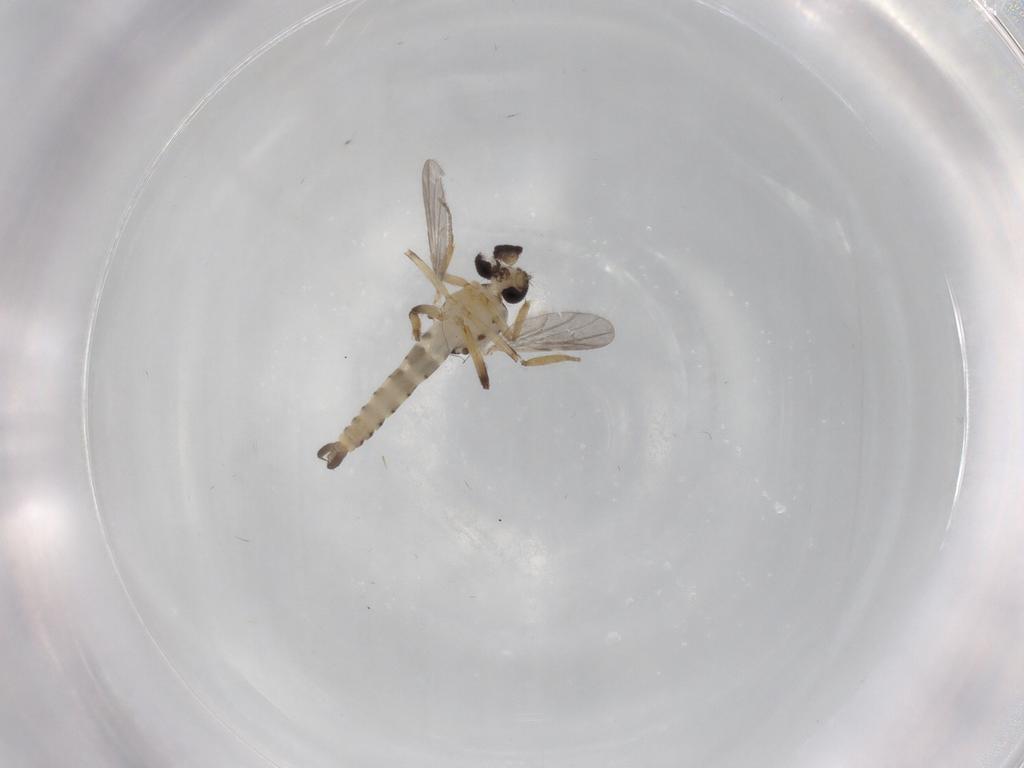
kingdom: Animalia
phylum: Arthropoda
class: Insecta
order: Diptera
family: Ceratopogonidae
